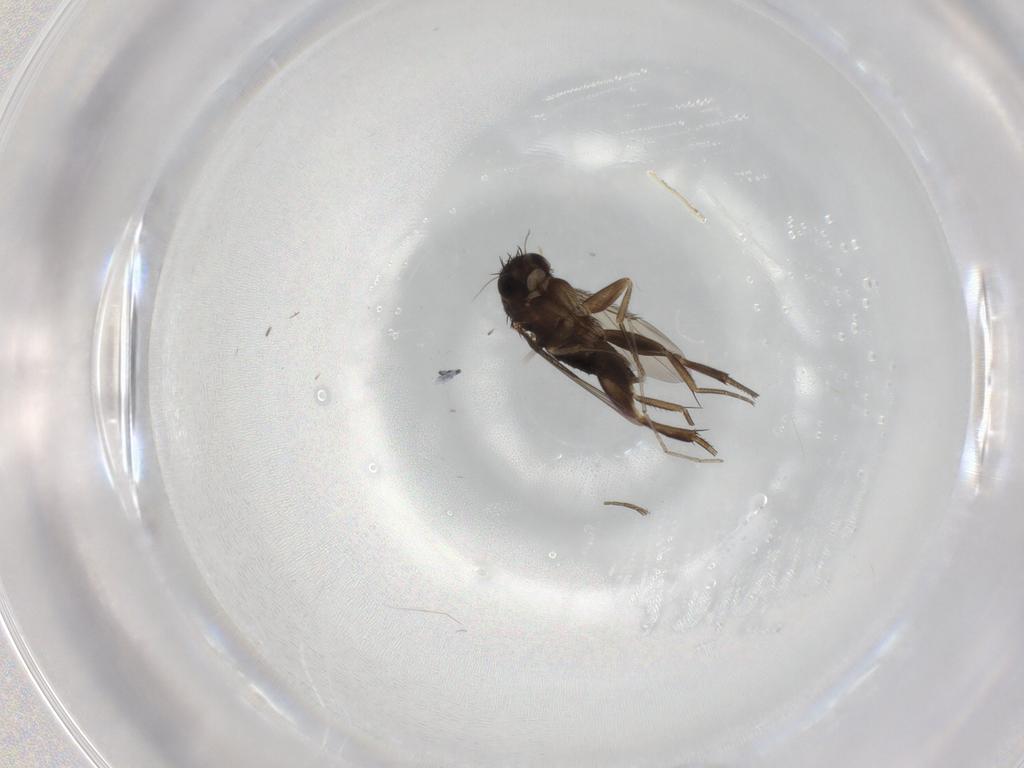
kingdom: Animalia
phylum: Arthropoda
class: Insecta
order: Diptera
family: Phoridae
